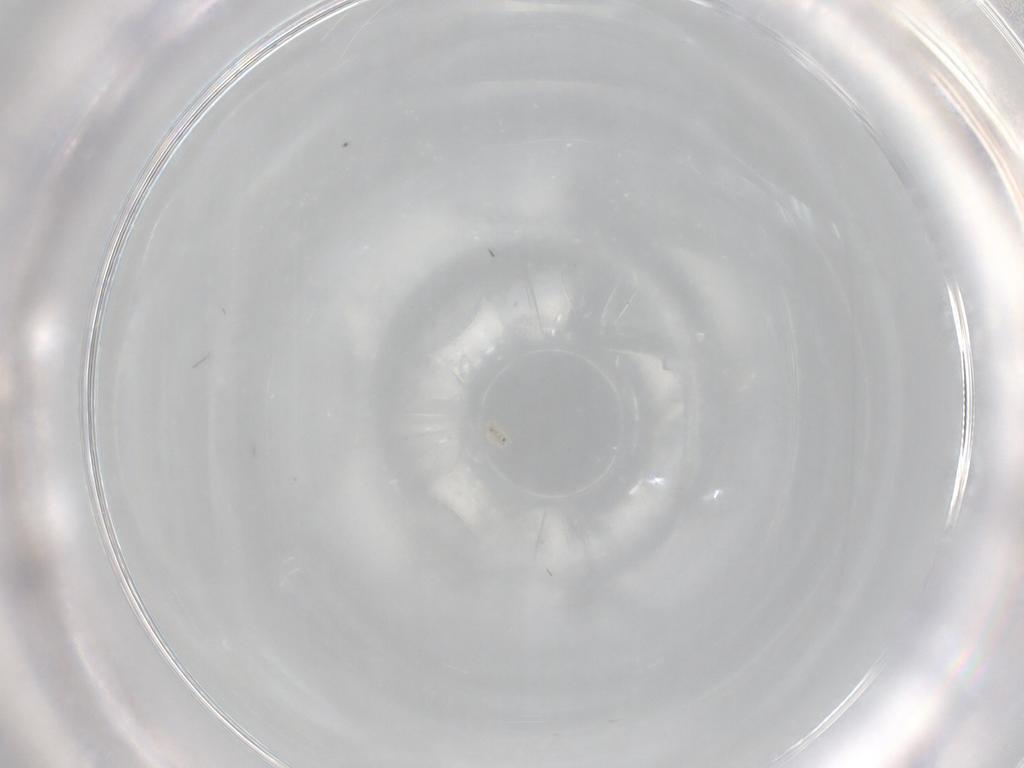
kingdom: Animalia
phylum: Arthropoda
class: Insecta
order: Diptera
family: Cecidomyiidae
